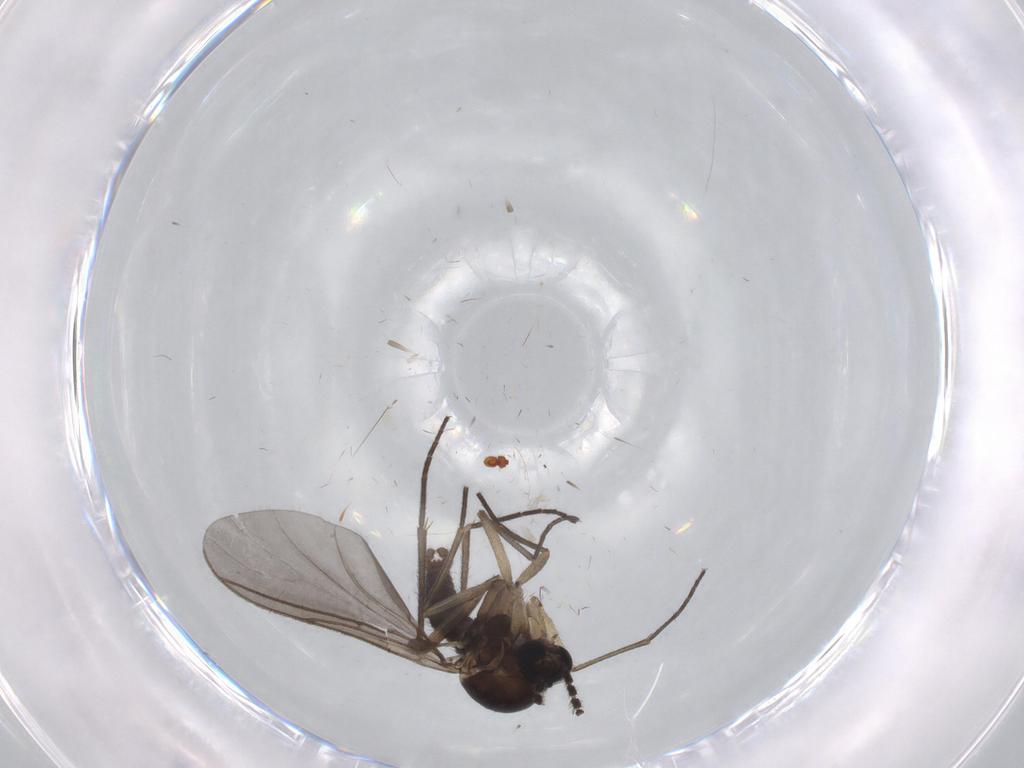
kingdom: Animalia
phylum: Arthropoda
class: Insecta
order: Diptera
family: Sciaridae
